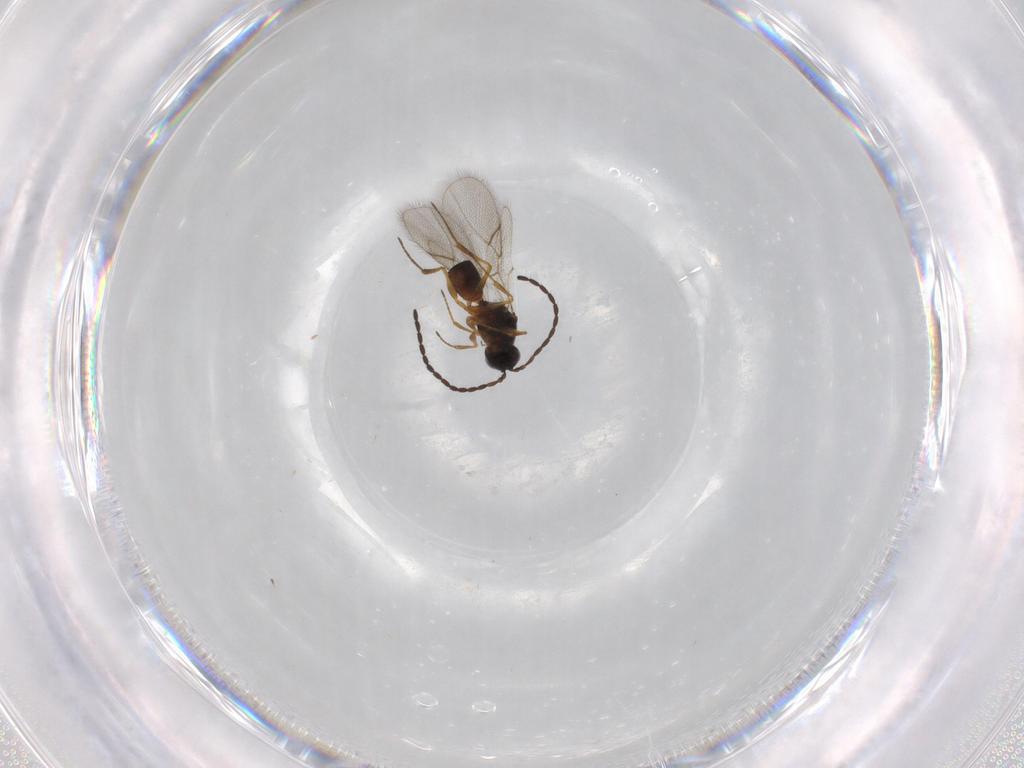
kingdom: Animalia
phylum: Arthropoda
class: Insecta
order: Hymenoptera
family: Figitidae
